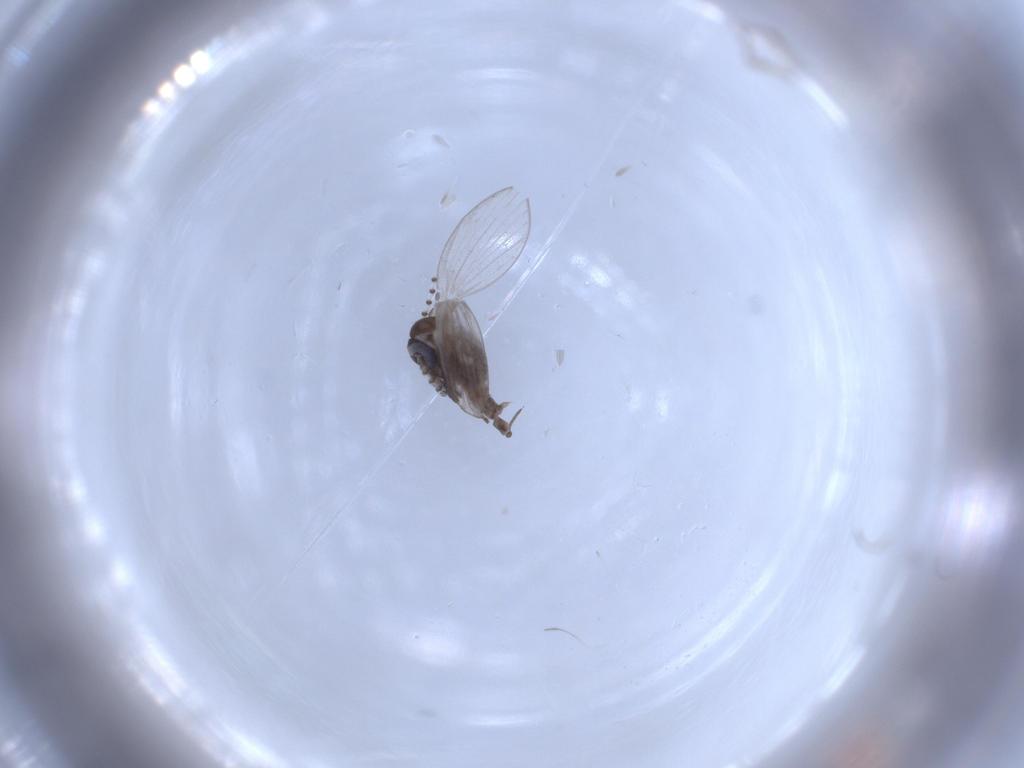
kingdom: Animalia
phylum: Arthropoda
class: Insecta
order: Diptera
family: Psychodidae
